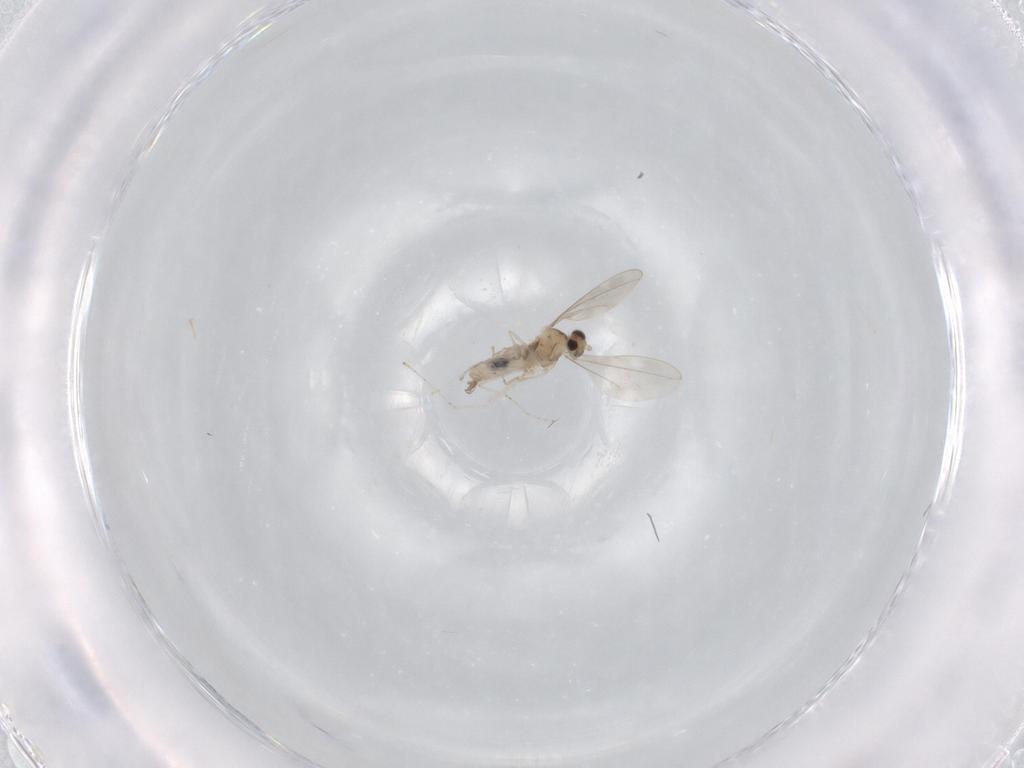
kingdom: Animalia
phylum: Arthropoda
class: Insecta
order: Diptera
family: Cecidomyiidae
